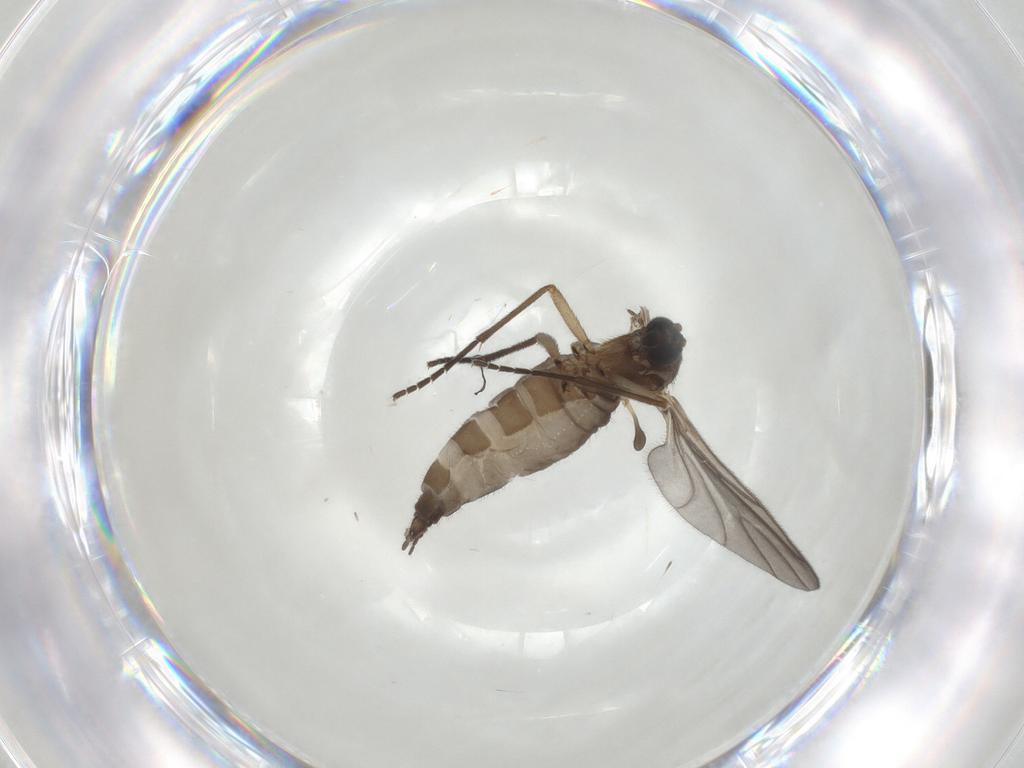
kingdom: Animalia
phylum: Arthropoda
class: Insecta
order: Diptera
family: Sciaridae
